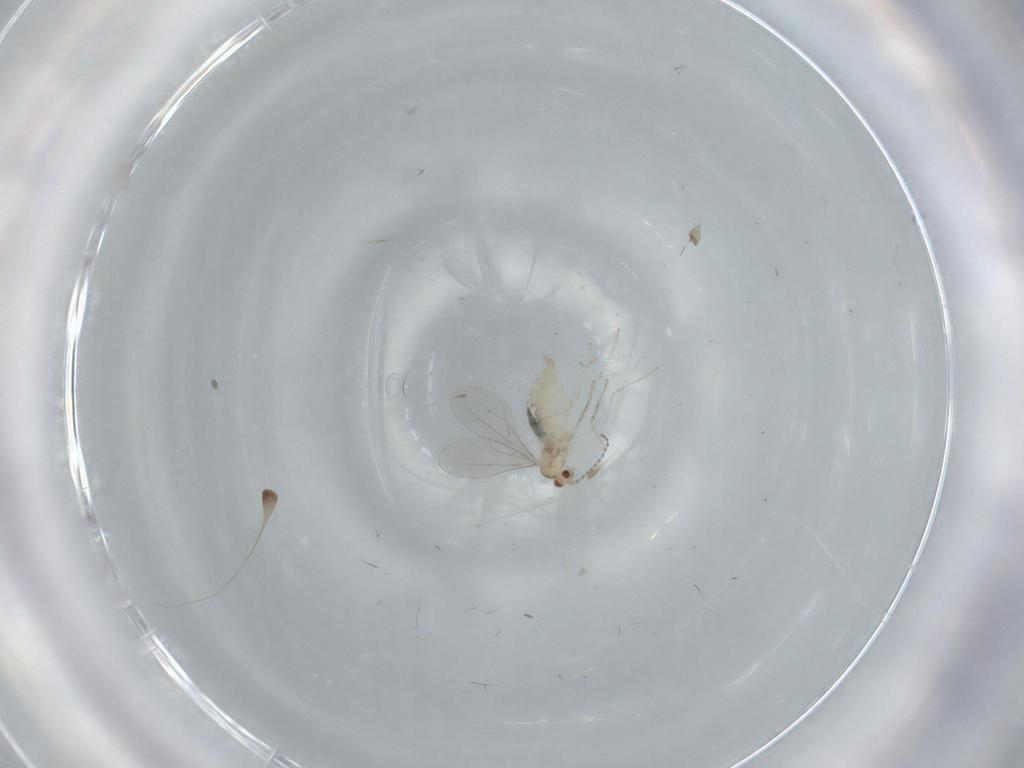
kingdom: Animalia
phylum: Arthropoda
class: Insecta
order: Diptera
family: Cecidomyiidae
